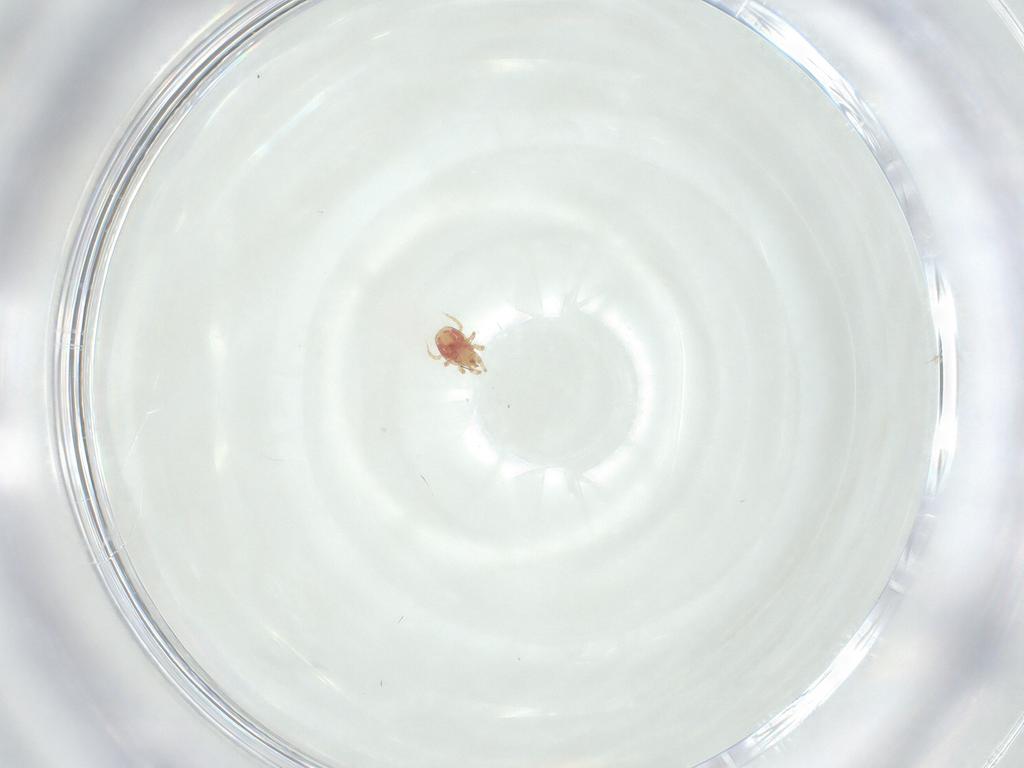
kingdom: Animalia
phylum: Arthropoda
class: Arachnida
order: Mesostigmata
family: Phytoseiidae
